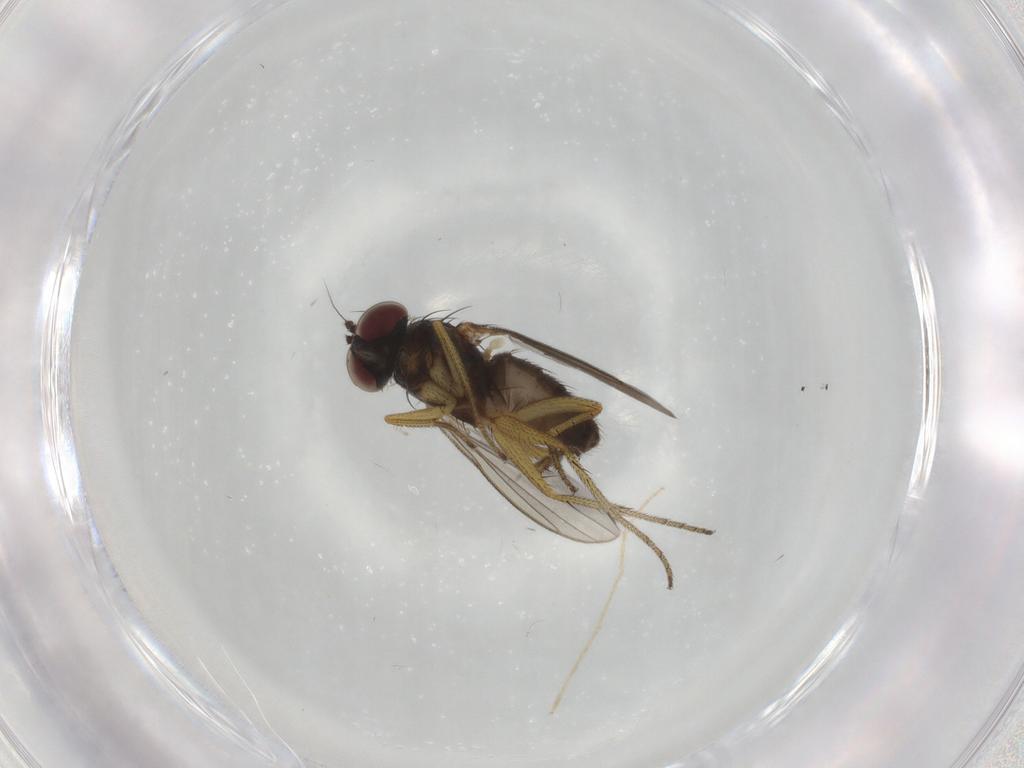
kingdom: Animalia
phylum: Arthropoda
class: Insecta
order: Diptera
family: Dolichopodidae
